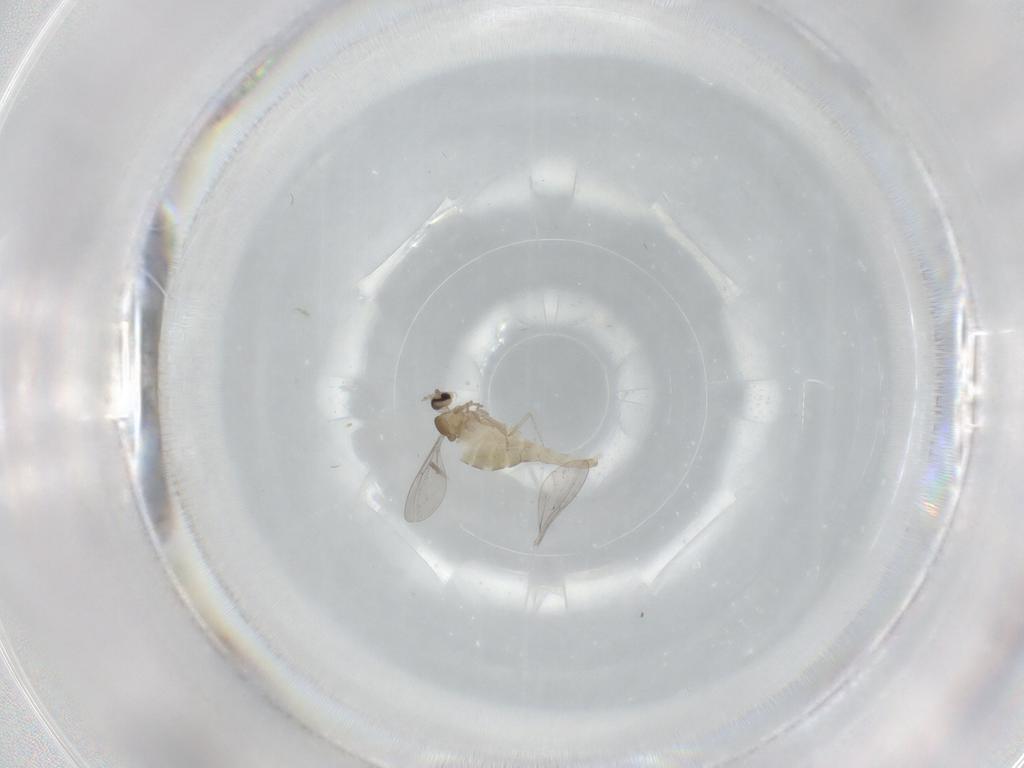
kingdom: Animalia
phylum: Arthropoda
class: Insecta
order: Diptera
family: Cecidomyiidae
